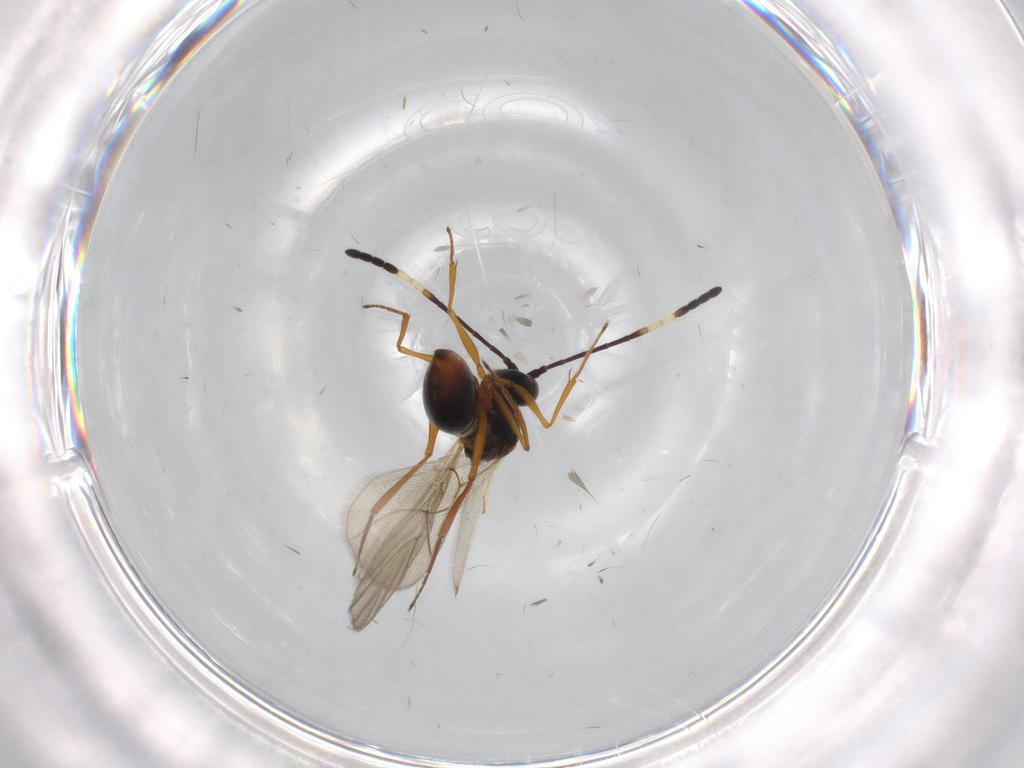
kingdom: Animalia
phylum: Arthropoda
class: Insecta
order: Hymenoptera
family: Figitidae
